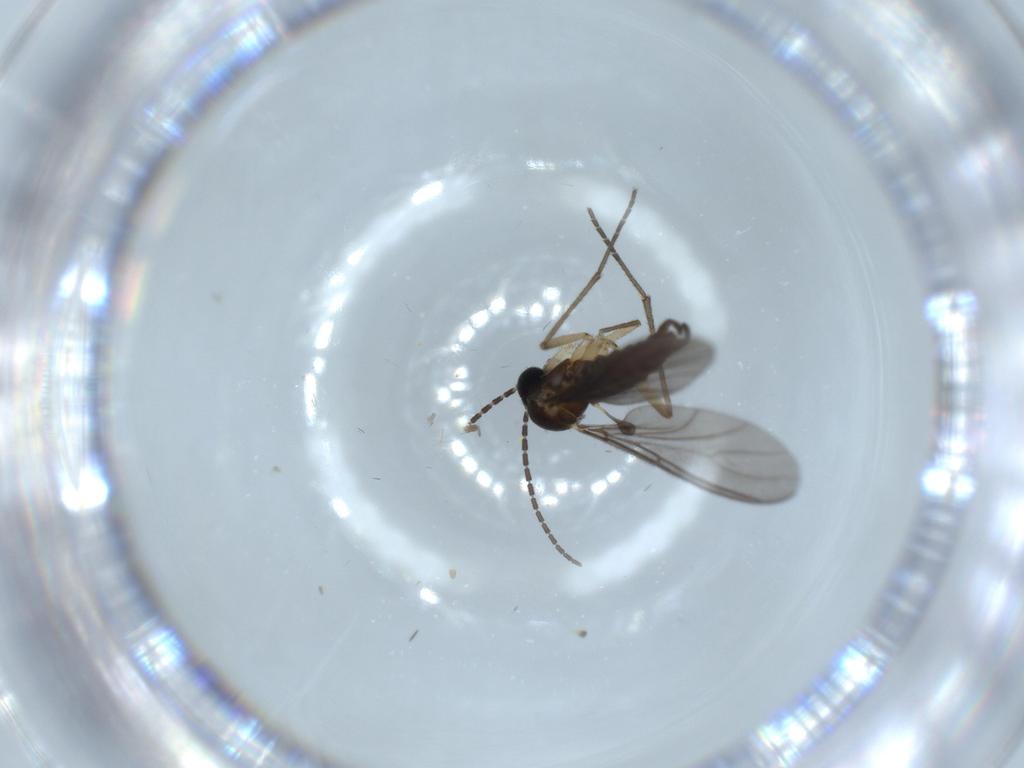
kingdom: Animalia
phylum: Arthropoda
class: Insecta
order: Diptera
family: Sciaridae
